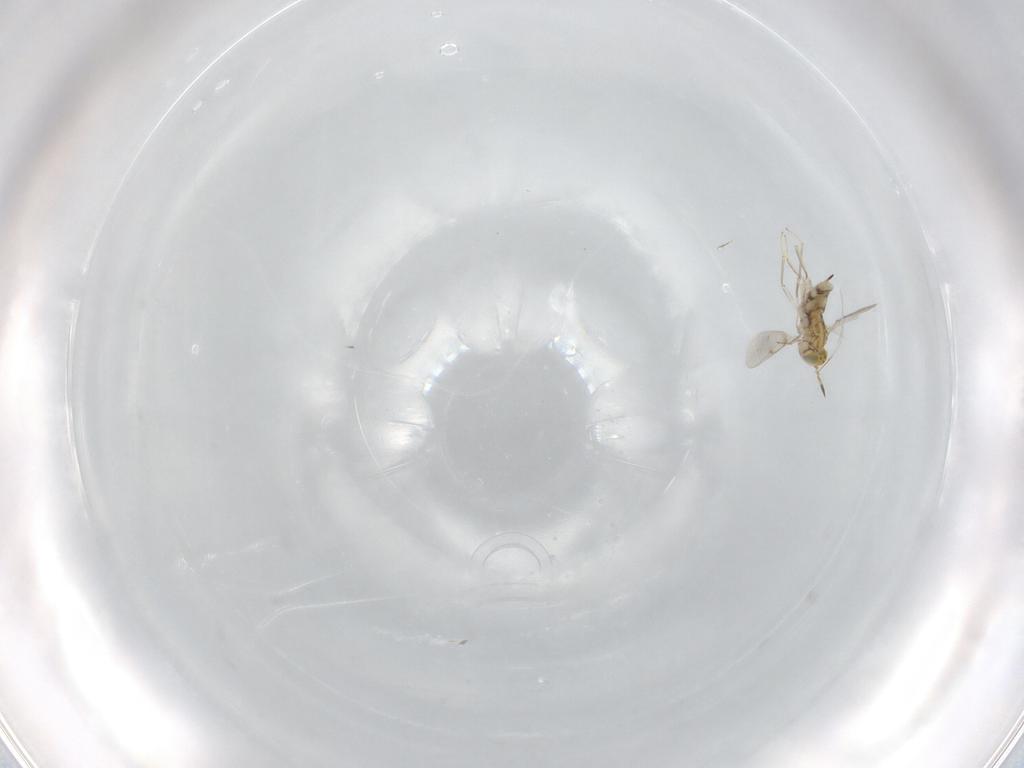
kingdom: Animalia
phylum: Arthropoda
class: Insecta
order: Hymenoptera
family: Aphelinidae
